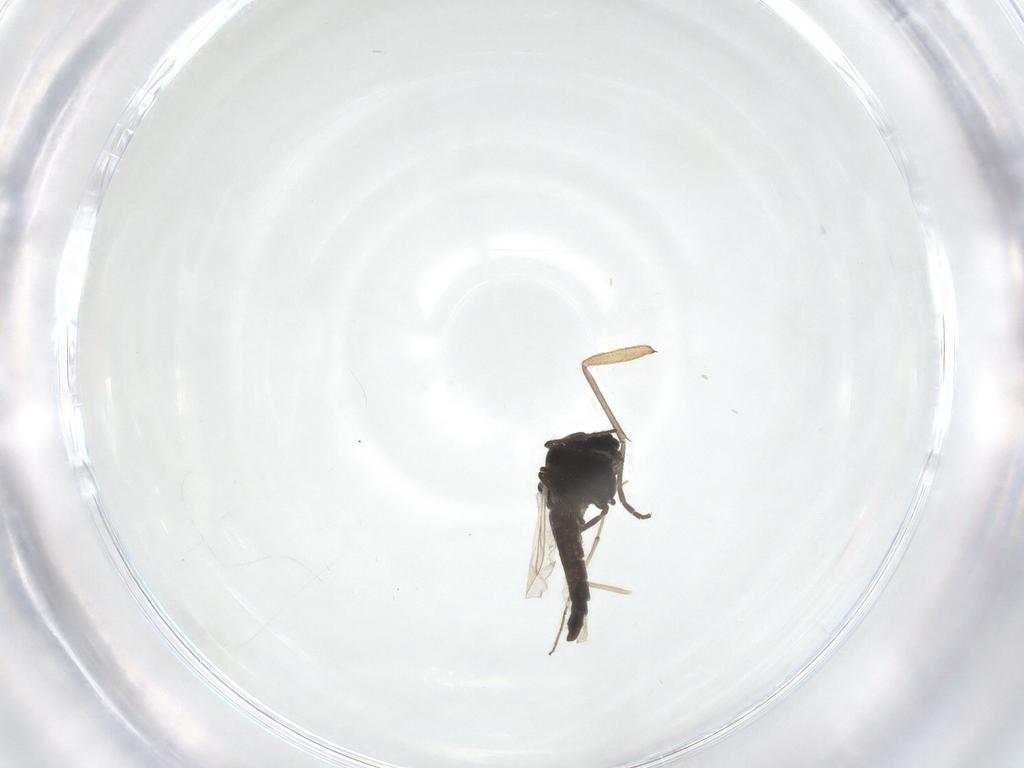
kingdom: Animalia
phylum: Arthropoda
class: Insecta
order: Diptera
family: Chironomidae
